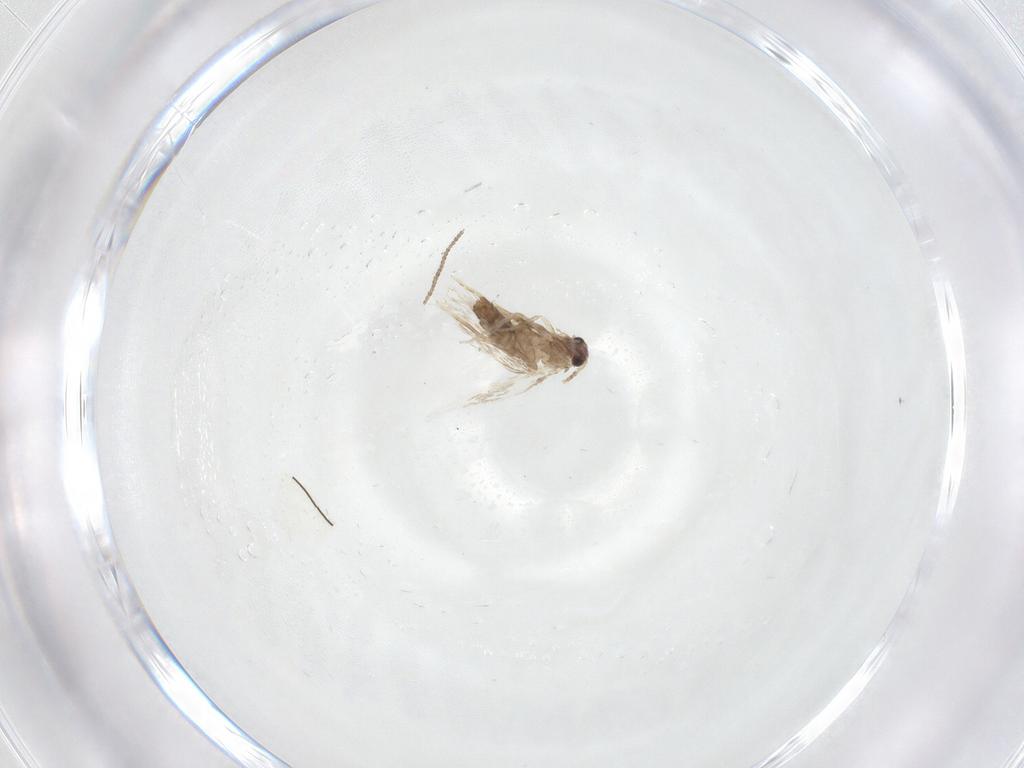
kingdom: Animalia
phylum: Arthropoda
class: Insecta
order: Lepidoptera
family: Nepticulidae
